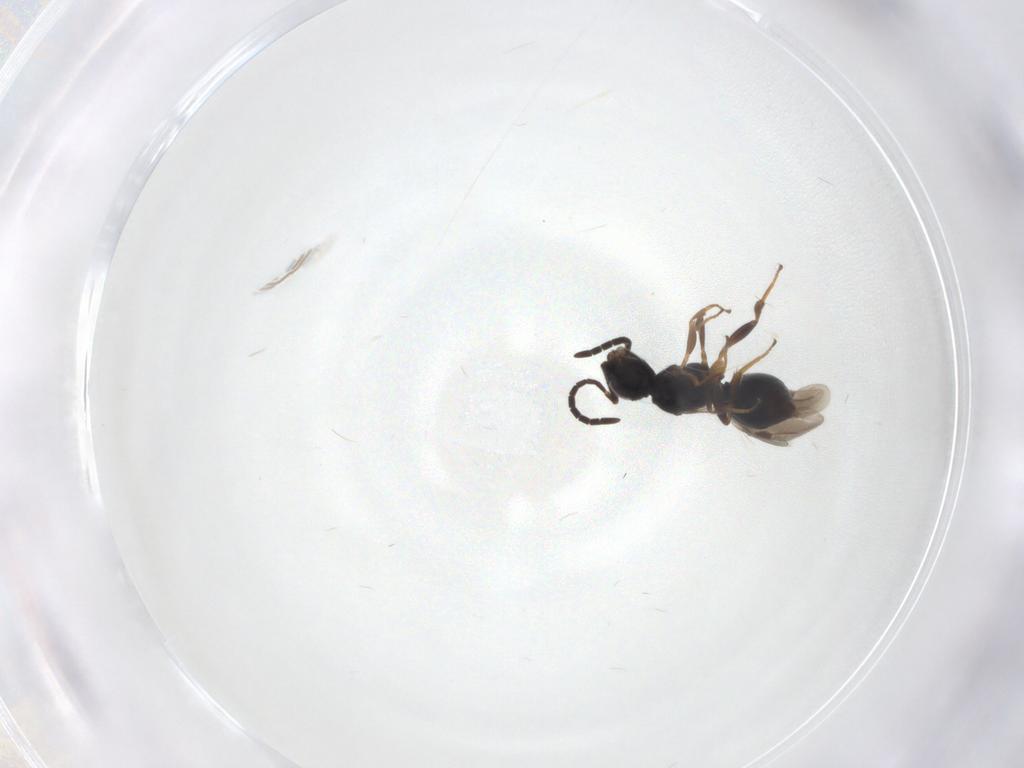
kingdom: Animalia
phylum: Arthropoda
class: Insecta
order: Hymenoptera
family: Megaspilidae
